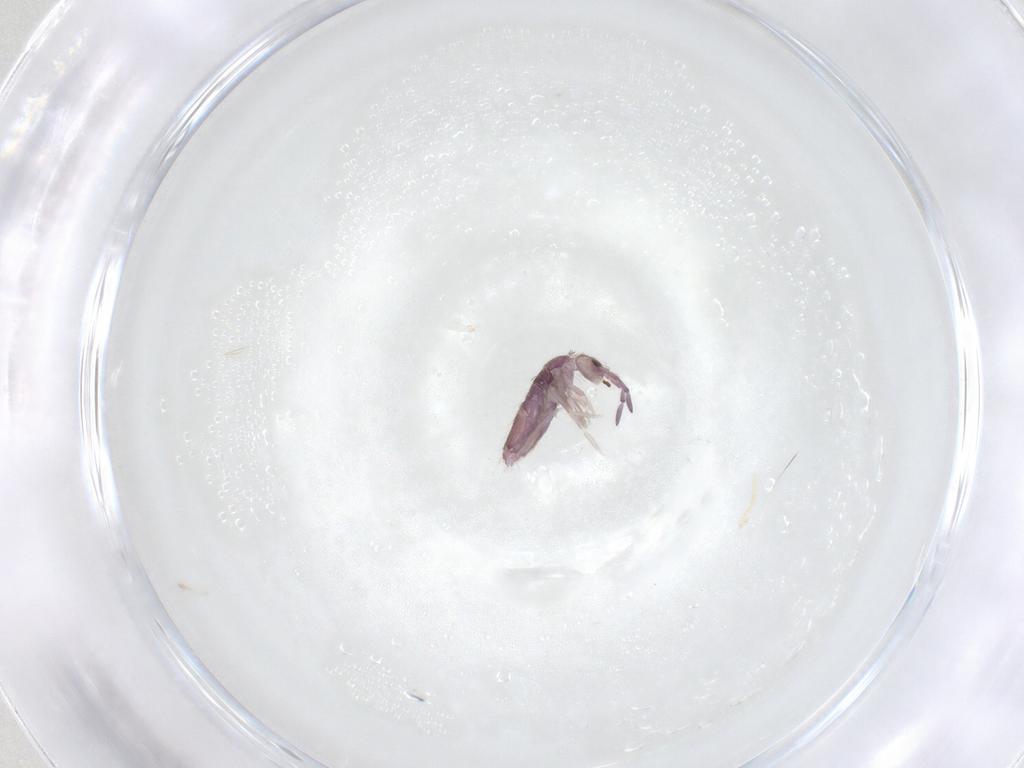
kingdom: Animalia
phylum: Arthropoda
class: Collembola
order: Entomobryomorpha
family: Entomobryidae
